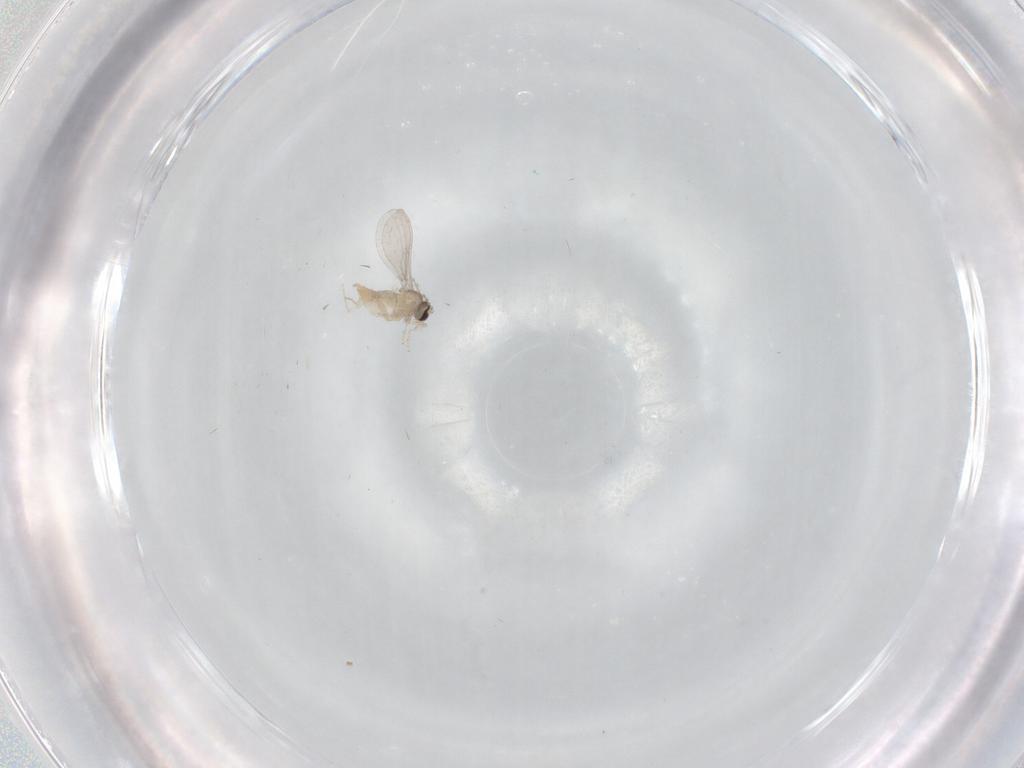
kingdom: Animalia
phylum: Arthropoda
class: Insecta
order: Diptera
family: Cecidomyiidae
